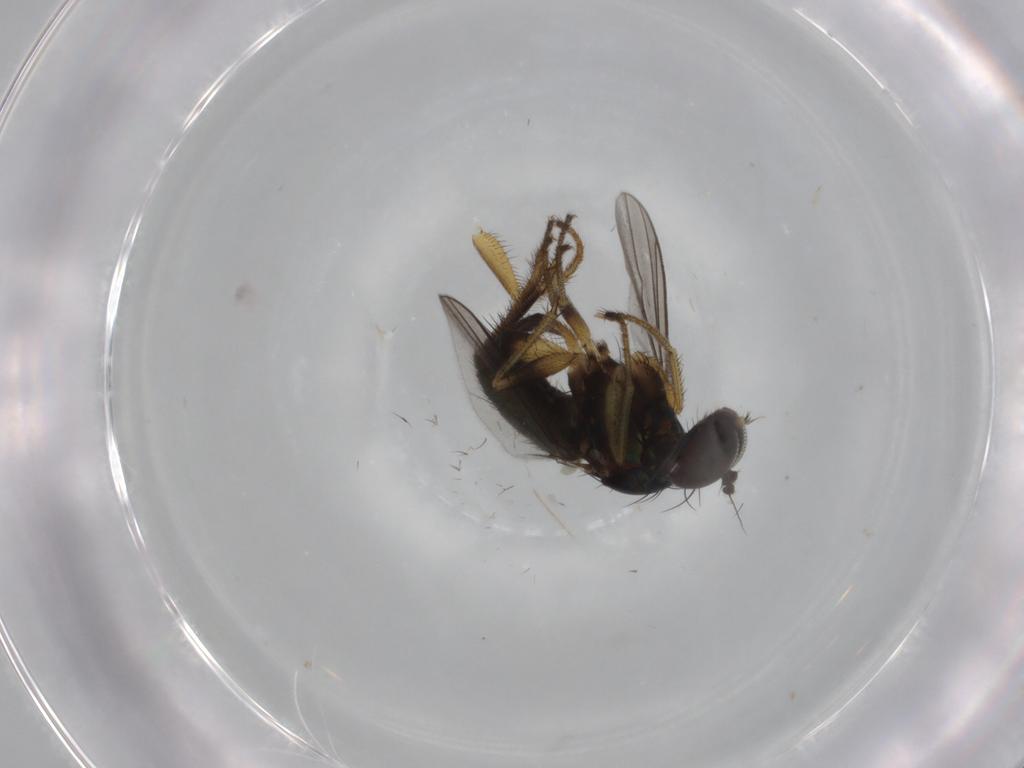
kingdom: Animalia
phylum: Arthropoda
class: Insecta
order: Diptera
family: Dolichopodidae
